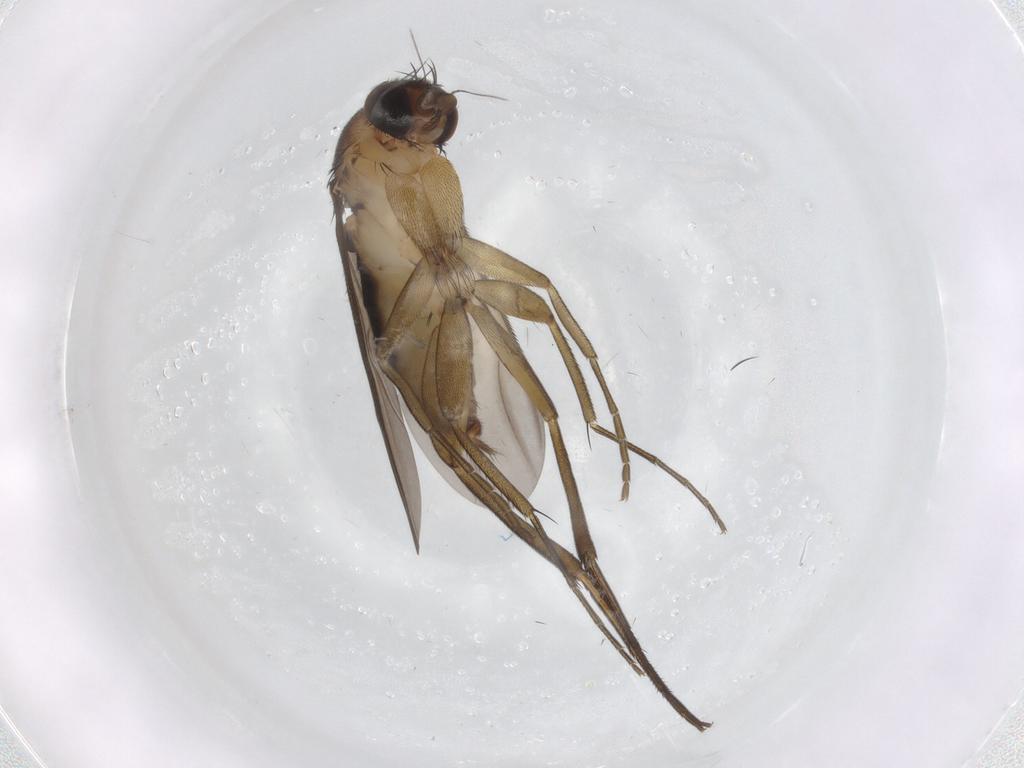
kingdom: Animalia
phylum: Arthropoda
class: Insecta
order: Diptera
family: Phoridae
